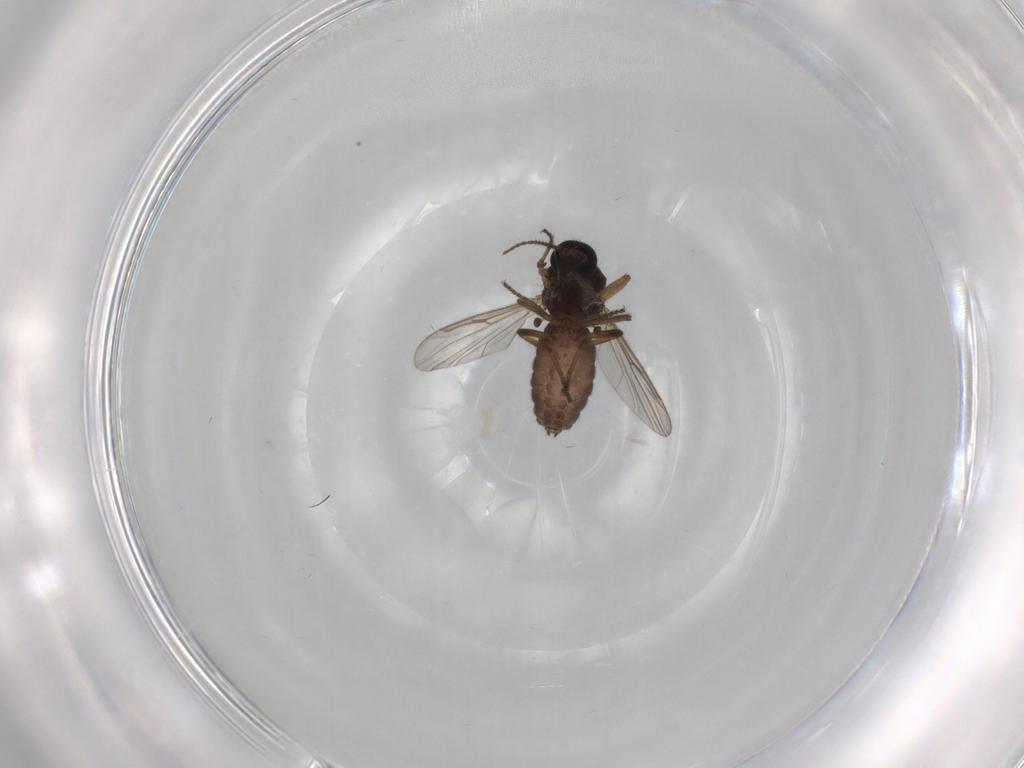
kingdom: Animalia
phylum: Arthropoda
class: Insecta
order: Diptera
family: Ceratopogonidae
